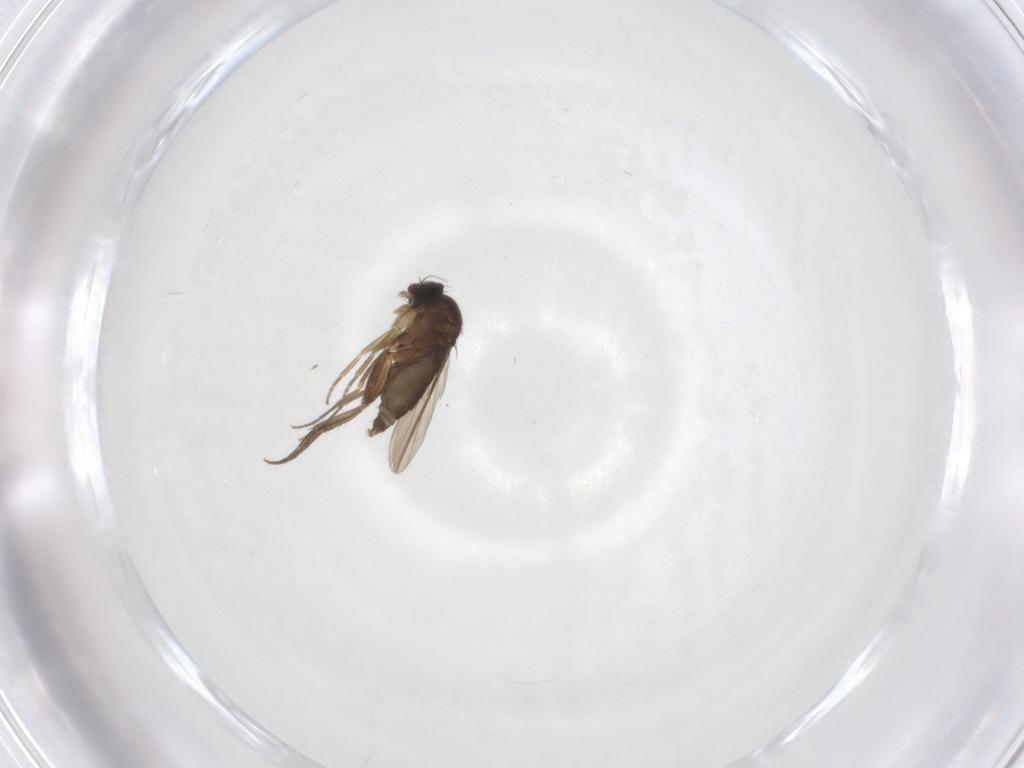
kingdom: Animalia
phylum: Arthropoda
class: Insecta
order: Diptera
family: Phoridae
